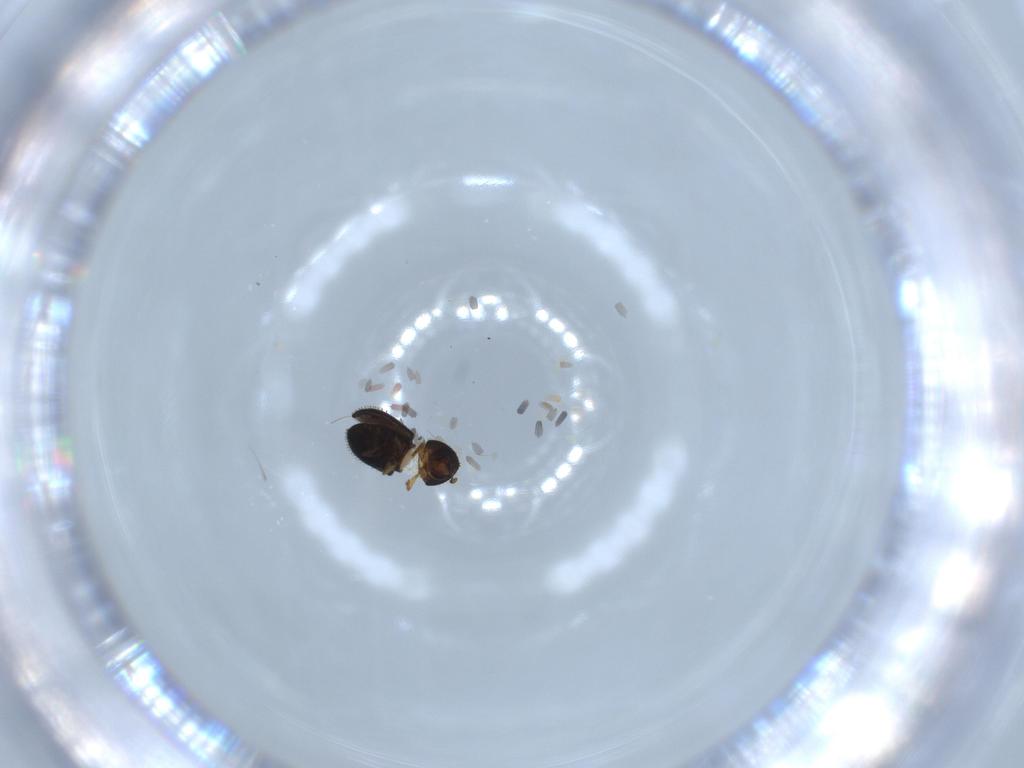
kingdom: Animalia
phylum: Arthropoda
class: Insecta
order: Coleoptera
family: Curculionidae
